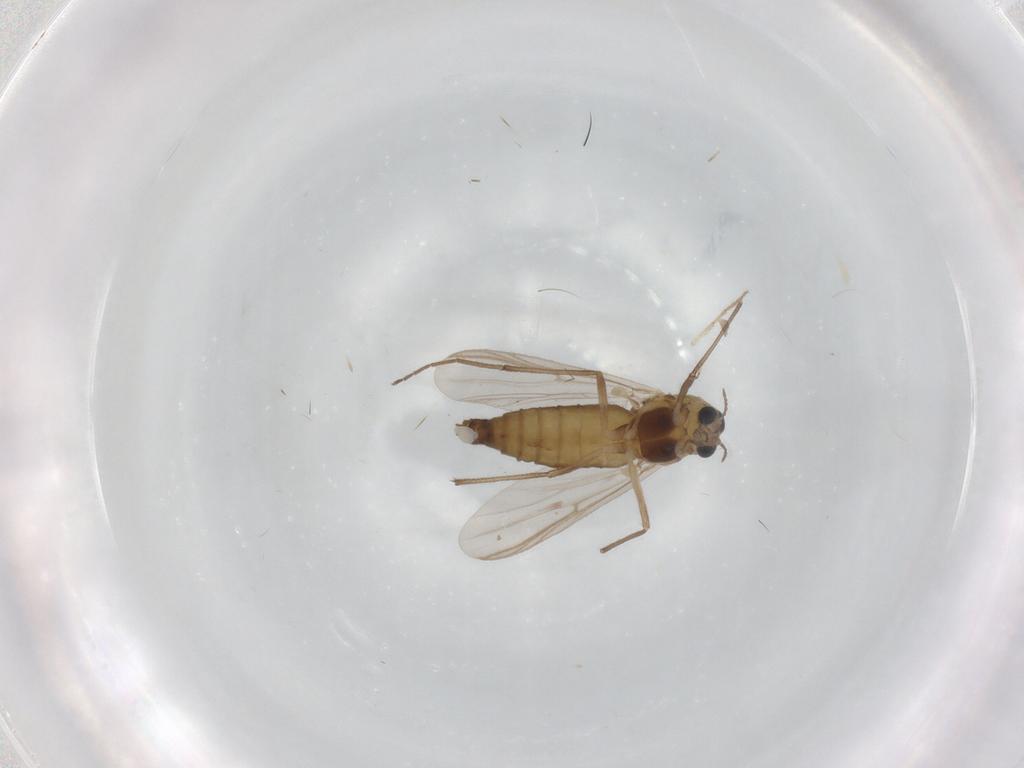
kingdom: Animalia
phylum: Arthropoda
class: Insecta
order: Diptera
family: Chironomidae
